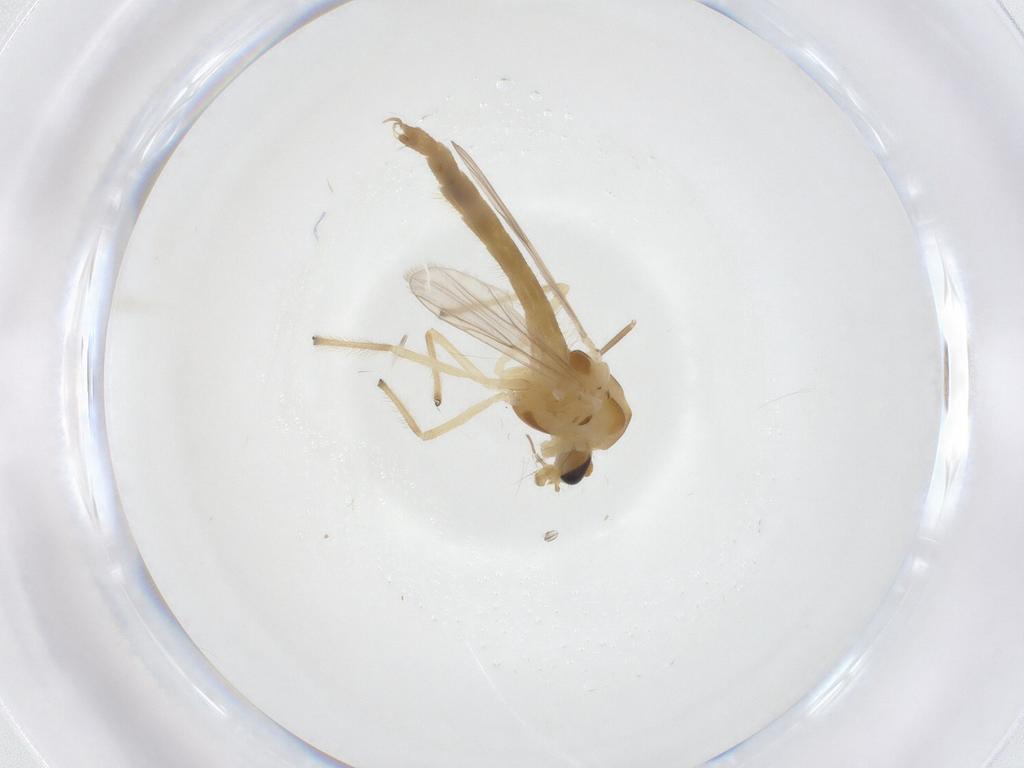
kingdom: Animalia
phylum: Arthropoda
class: Insecta
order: Diptera
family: Chironomidae
